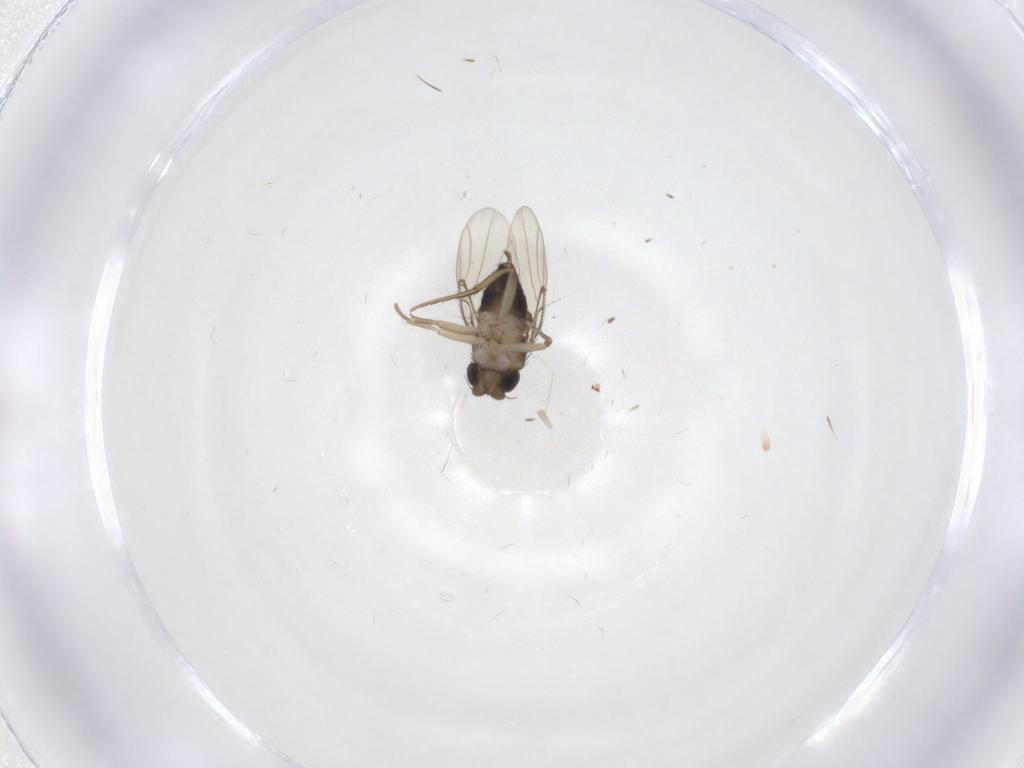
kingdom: Animalia
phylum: Arthropoda
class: Insecta
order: Diptera
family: Phoridae
